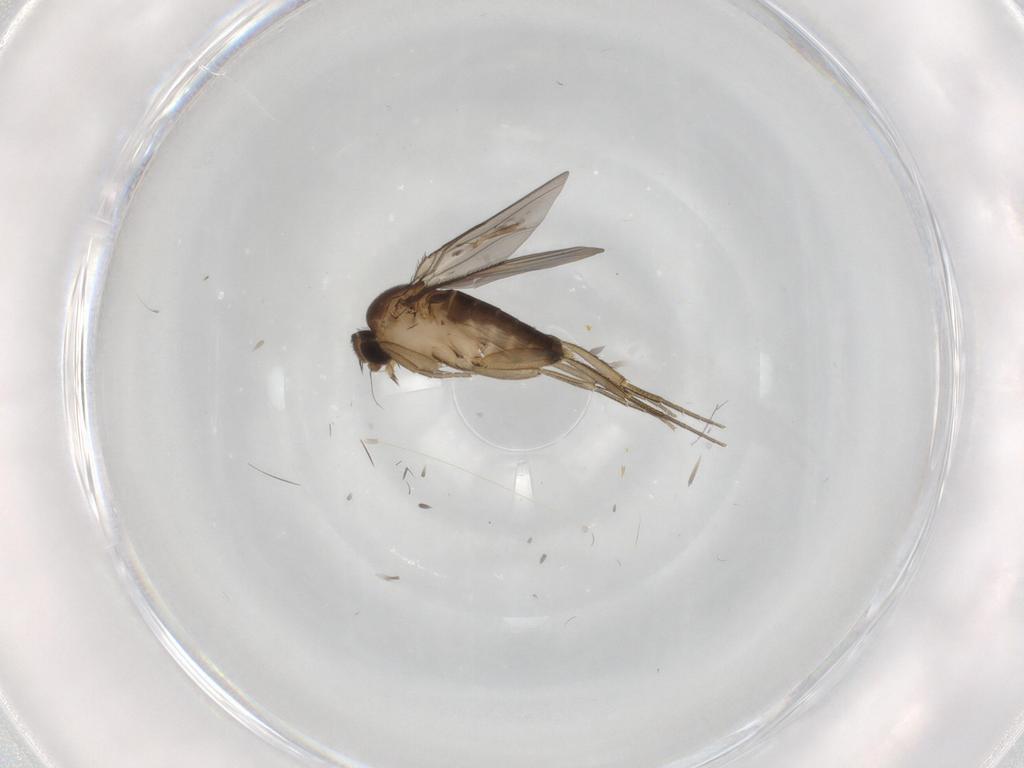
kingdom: Animalia
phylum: Arthropoda
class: Insecta
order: Diptera
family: Phoridae
